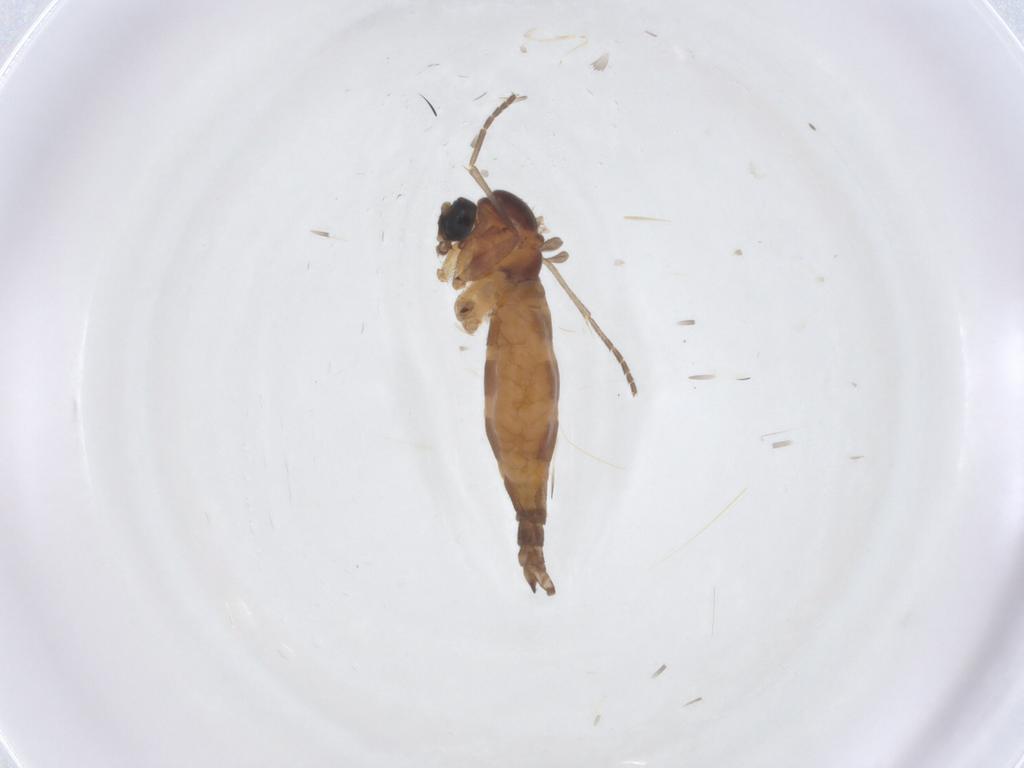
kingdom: Animalia
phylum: Arthropoda
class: Insecta
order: Diptera
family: Sciaridae
